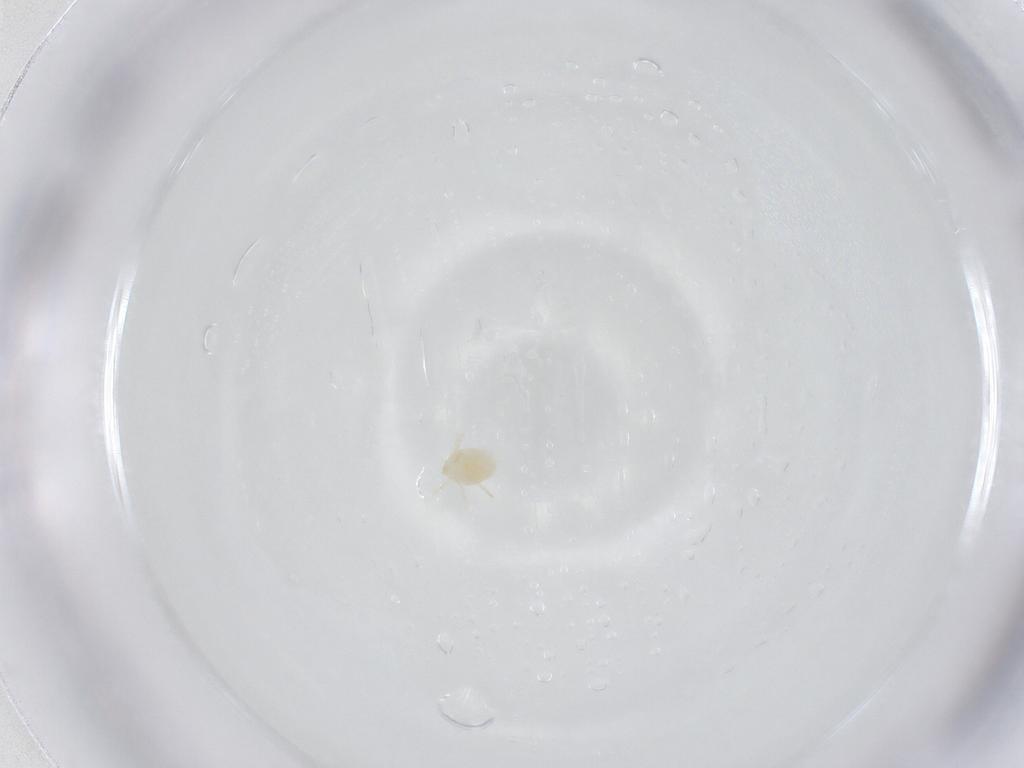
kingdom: Animalia
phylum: Arthropoda
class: Arachnida
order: Trombidiformes
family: Trombidiidae
